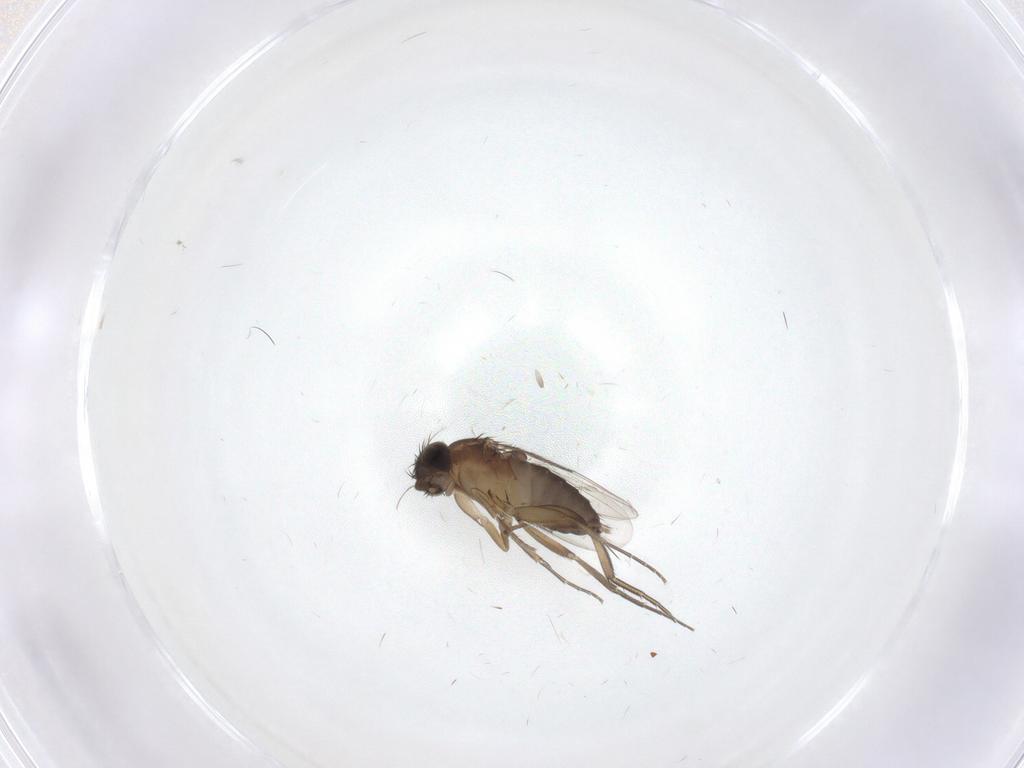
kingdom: Animalia
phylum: Arthropoda
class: Insecta
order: Diptera
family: Phoridae
